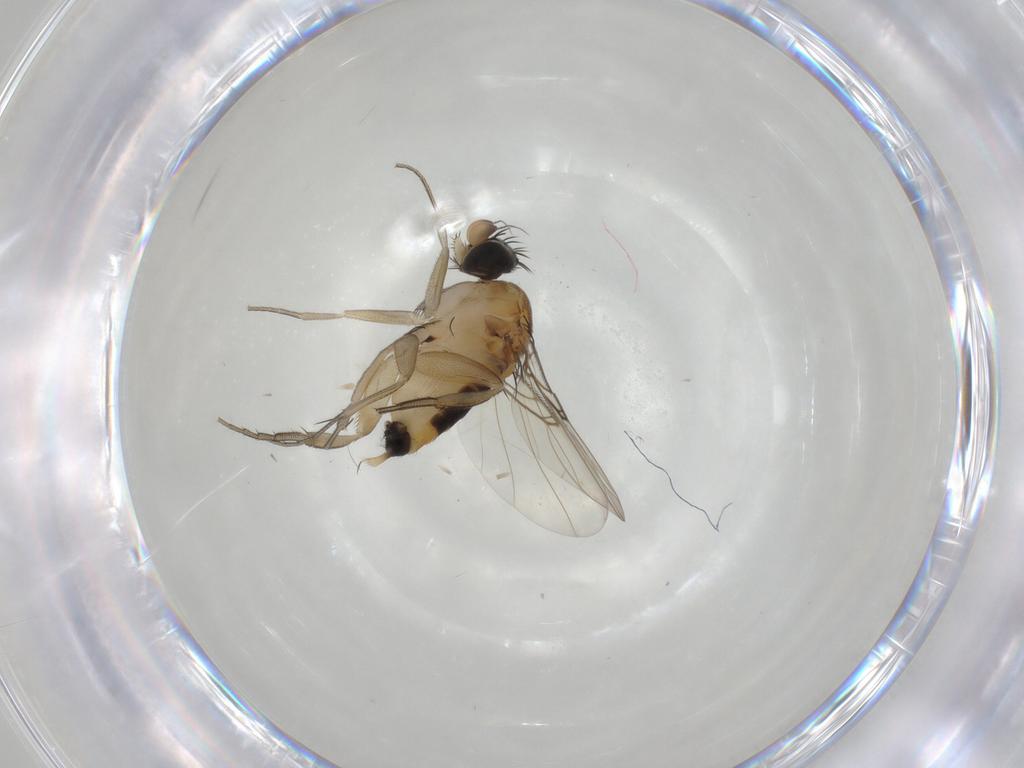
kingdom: Animalia
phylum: Arthropoda
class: Insecta
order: Diptera
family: Phoridae
